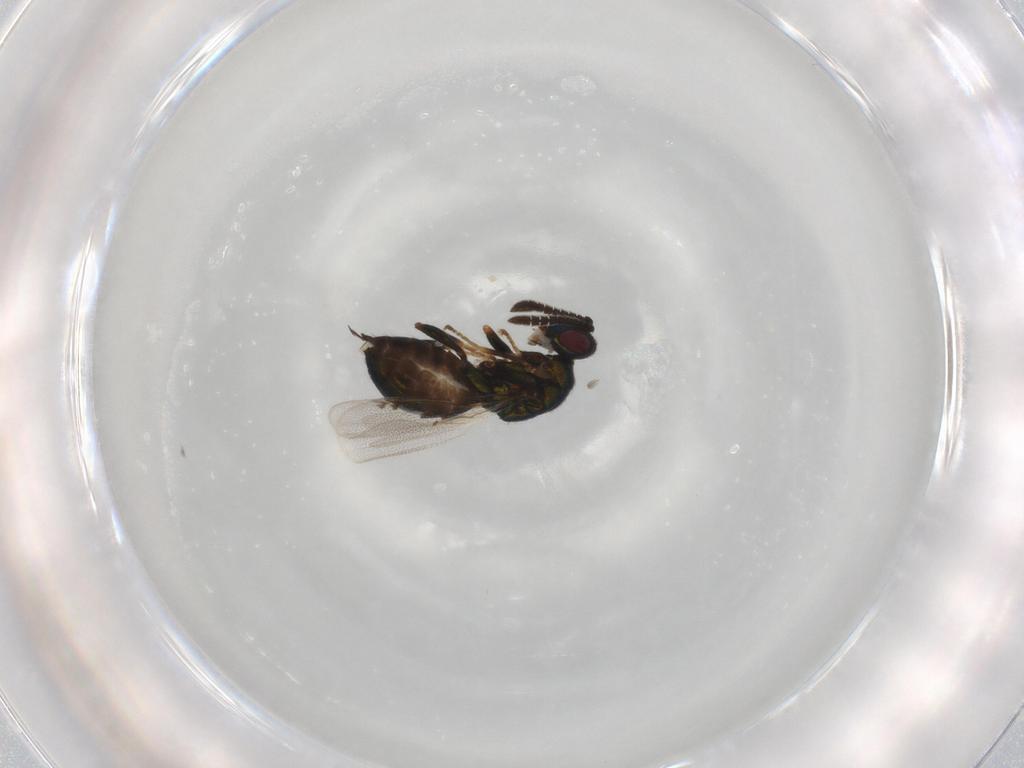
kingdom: Animalia
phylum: Arthropoda
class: Insecta
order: Hymenoptera
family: Torymidae
